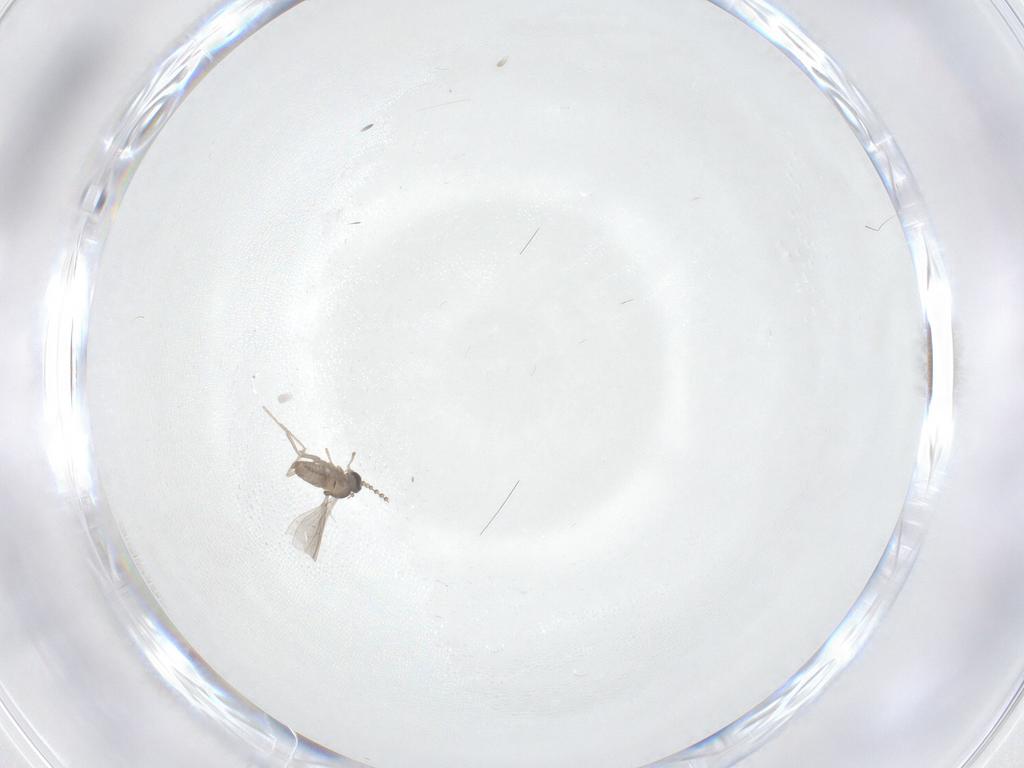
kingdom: Animalia
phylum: Arthropoda
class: Insecta
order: Diptera
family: Cecidomyiidae
